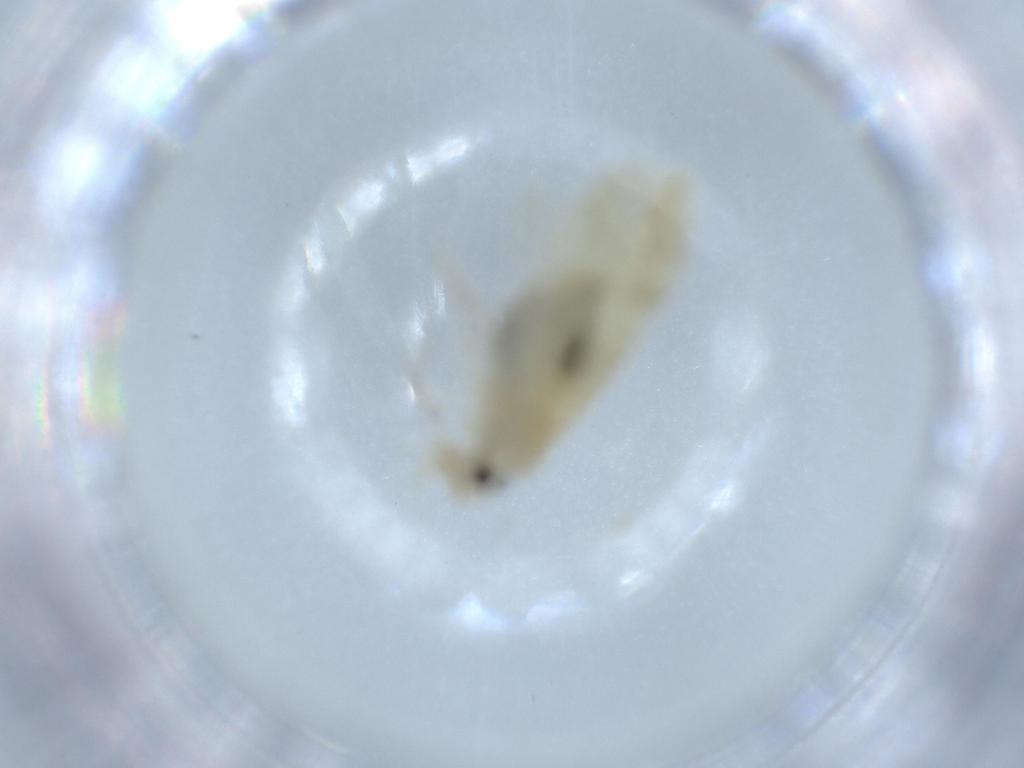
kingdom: Animalia
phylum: Arthropoda
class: Insecta
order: Psocodea
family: Caeciliusidae
